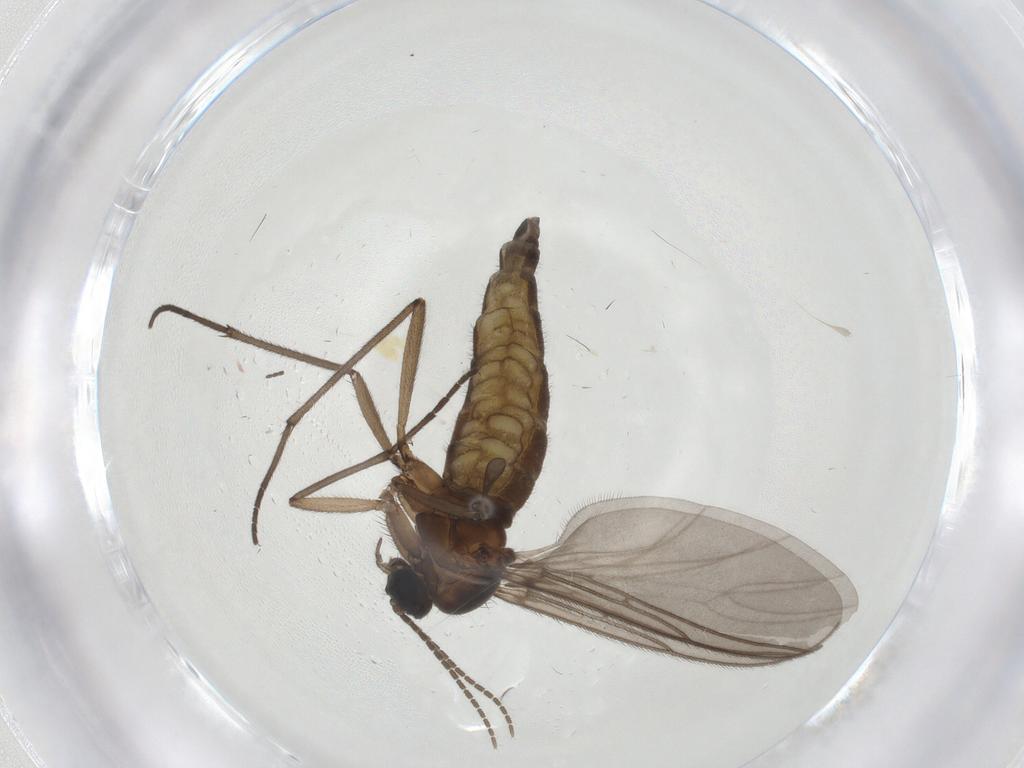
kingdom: Animalia
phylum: Arthropoda
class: Insecta
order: Diptera
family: Sciaridae
